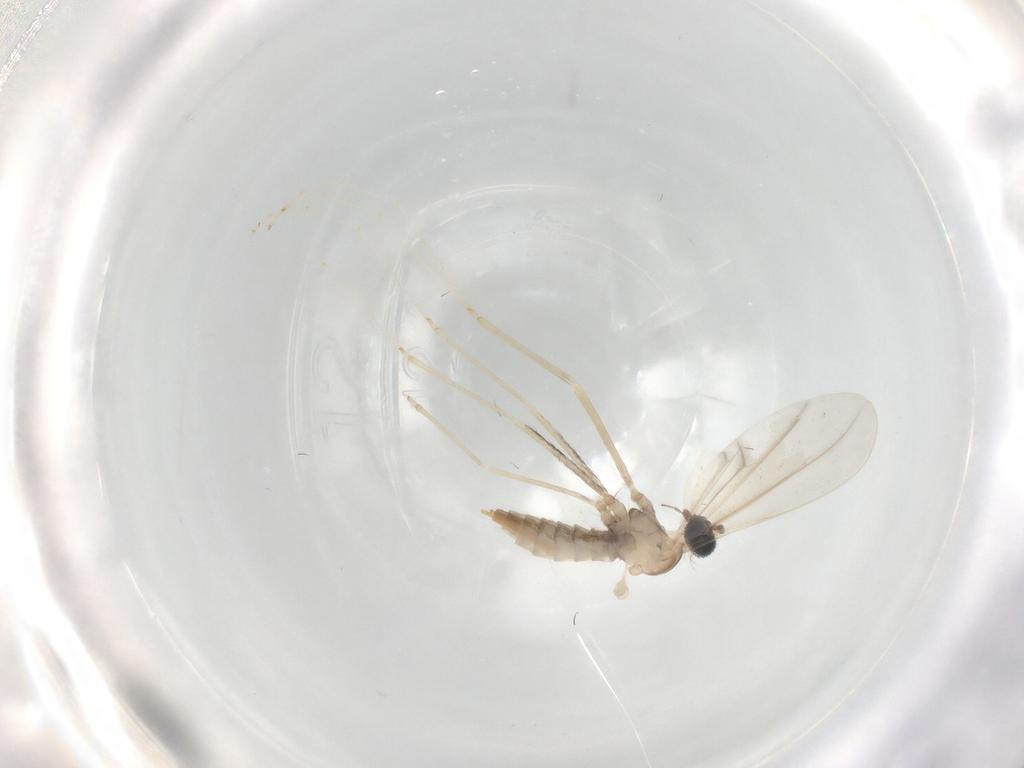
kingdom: Animalia
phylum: Arthropoda
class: Insecta
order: Diptera
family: Cecidomyiidae
